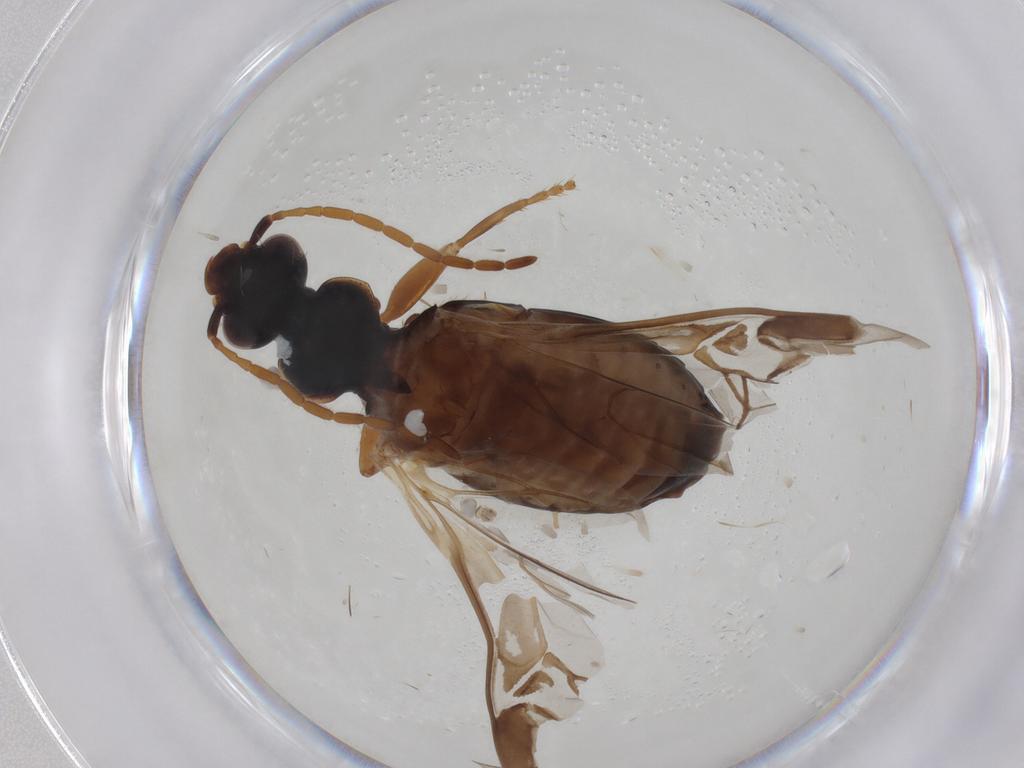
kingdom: Animalia
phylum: Arthropoda
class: Insecta
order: Coleoptera
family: Carabidae
